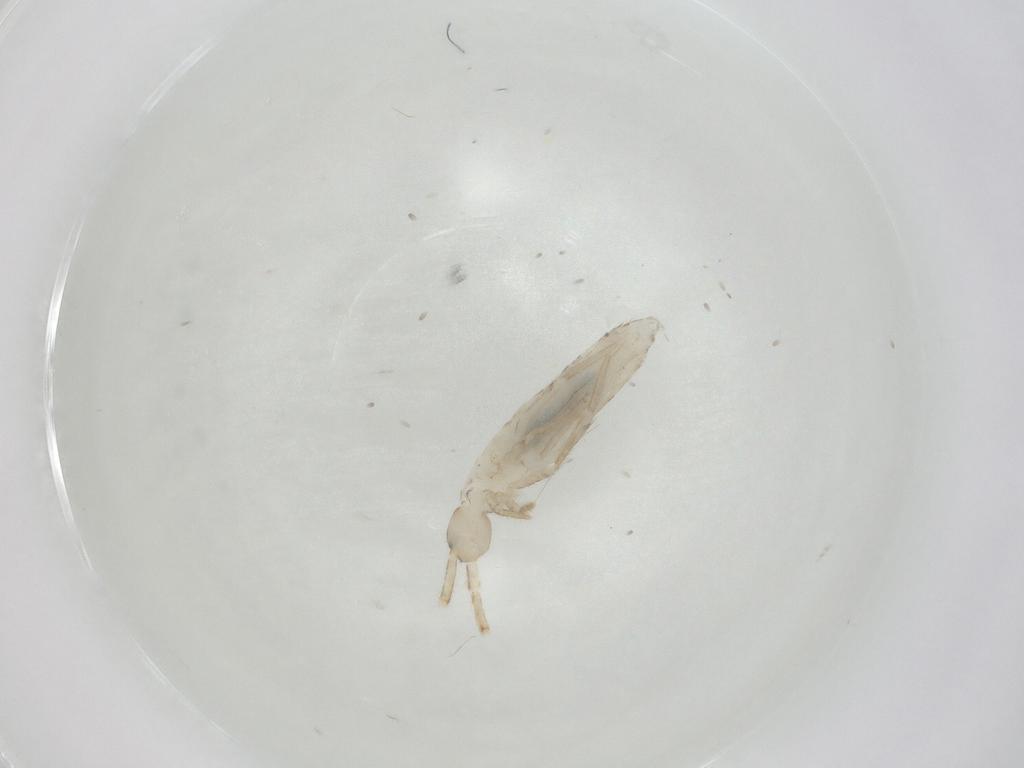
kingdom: Animalia
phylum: Arthropoda
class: Collembola
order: Entomobryomorpha
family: Entomobryidae
